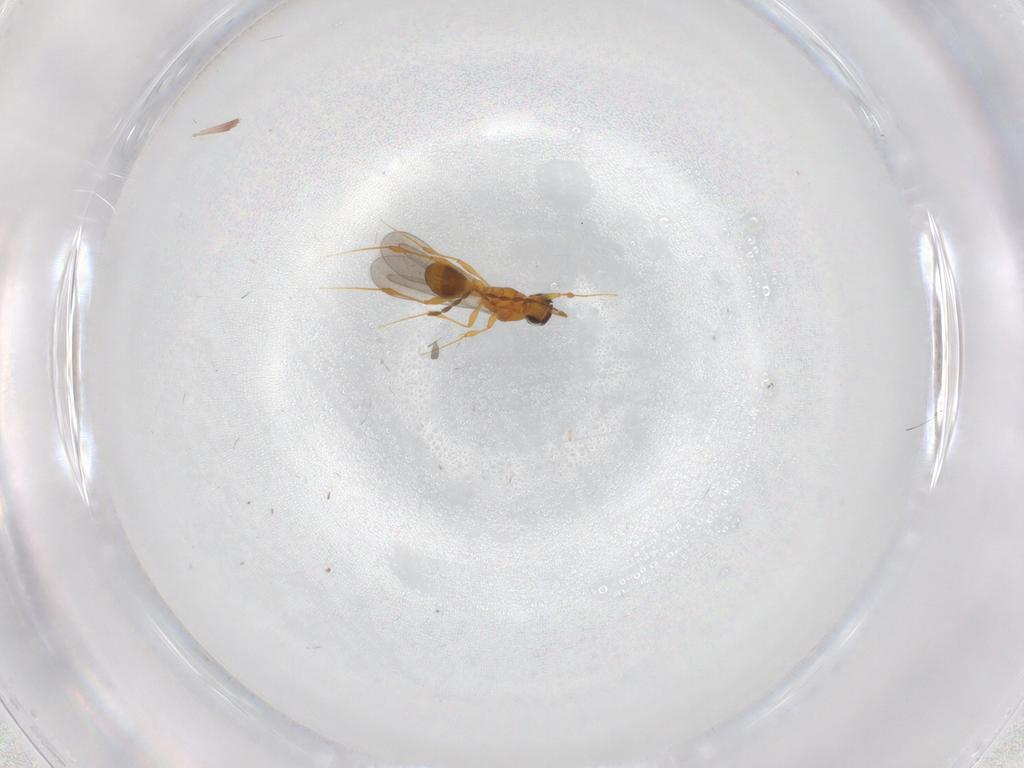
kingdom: Animalia
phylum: Arthropoda
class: Insecta
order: Hymenoptera
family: Platygastridae
